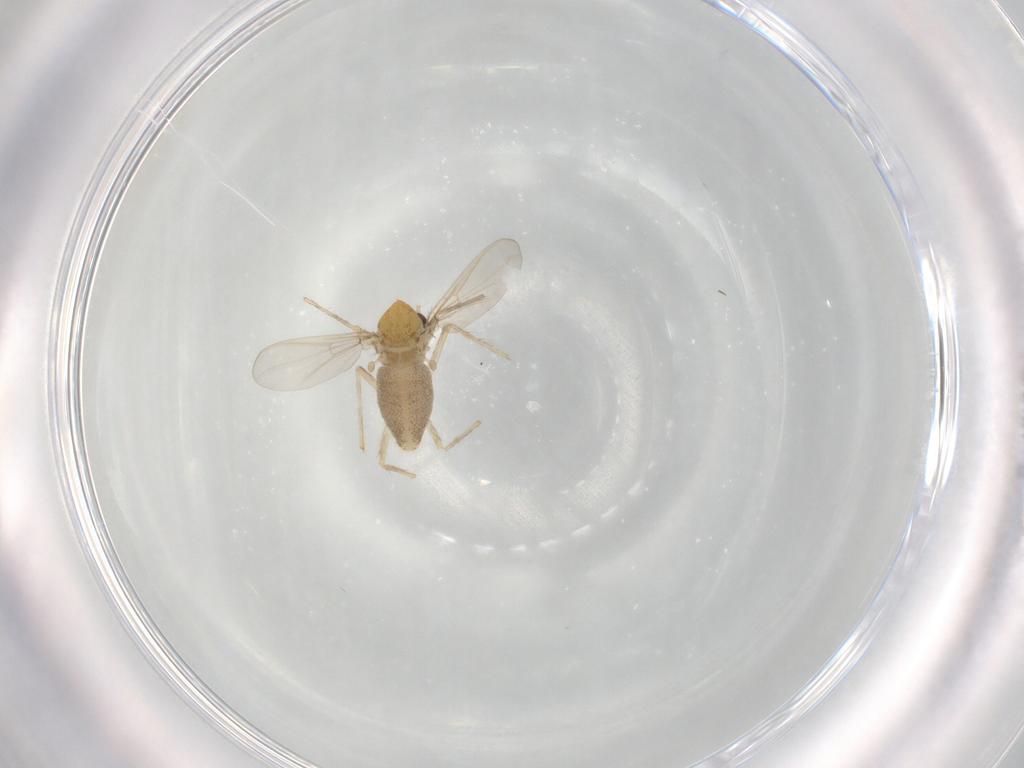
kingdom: Animalia
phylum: Arthropoda
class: Insecta
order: Diptera
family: Chironomidae
